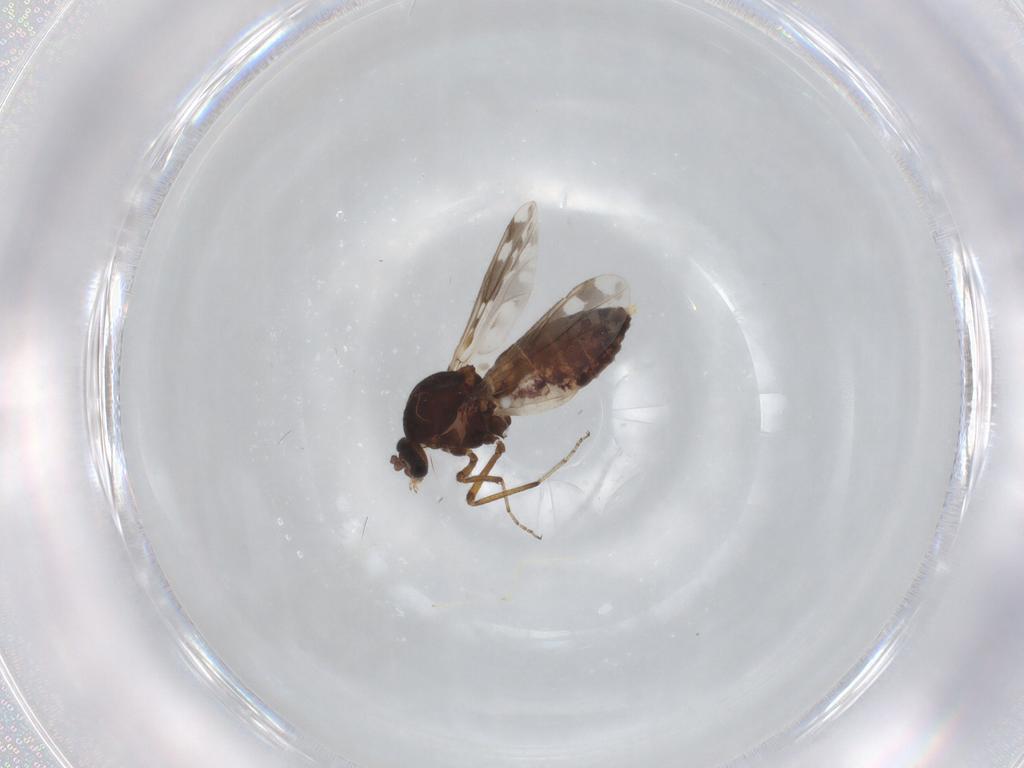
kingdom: Animalia
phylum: Arthropoda
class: Insecta
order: Diptera
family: Ceratopogonidae
